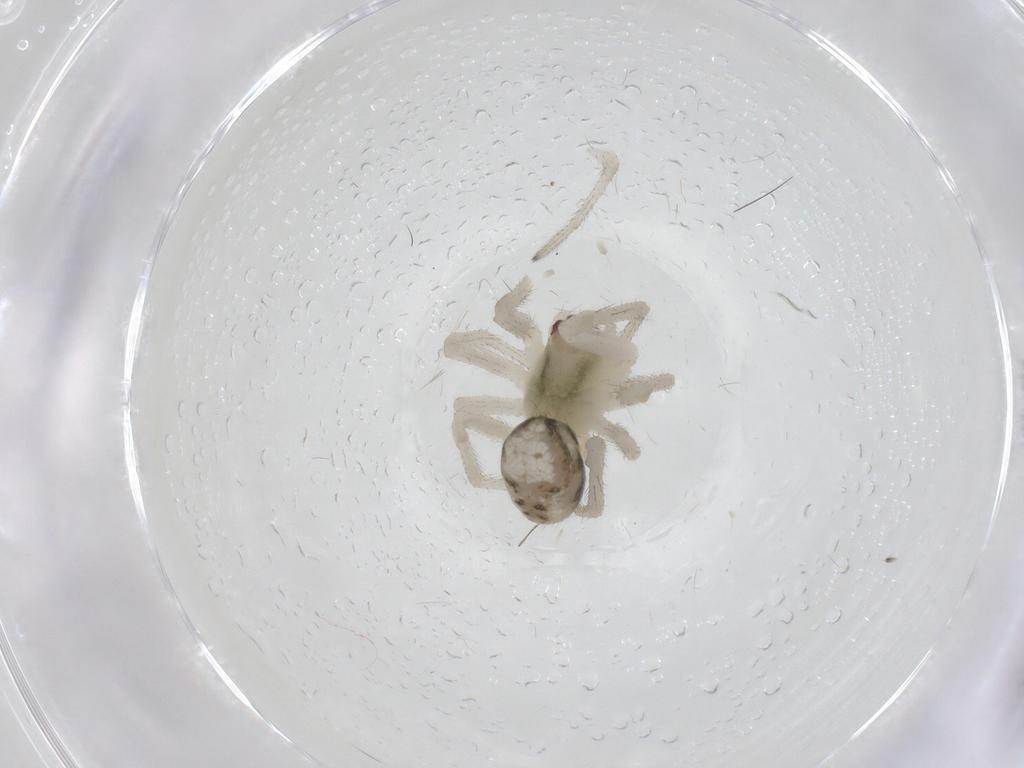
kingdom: Animalia
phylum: Arthropoda
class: Arachnida
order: Araneae
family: Theridiidae
